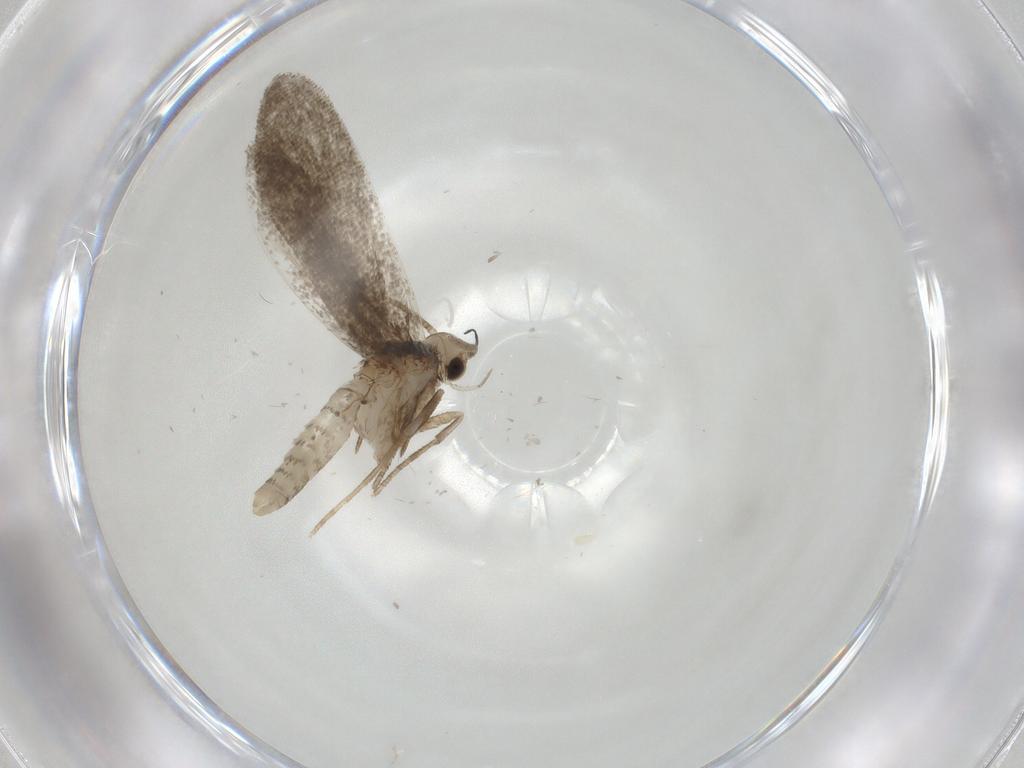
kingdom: Animalia
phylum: Arthropoda
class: Insecta
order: Lepidoptera
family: Nymphalidae
